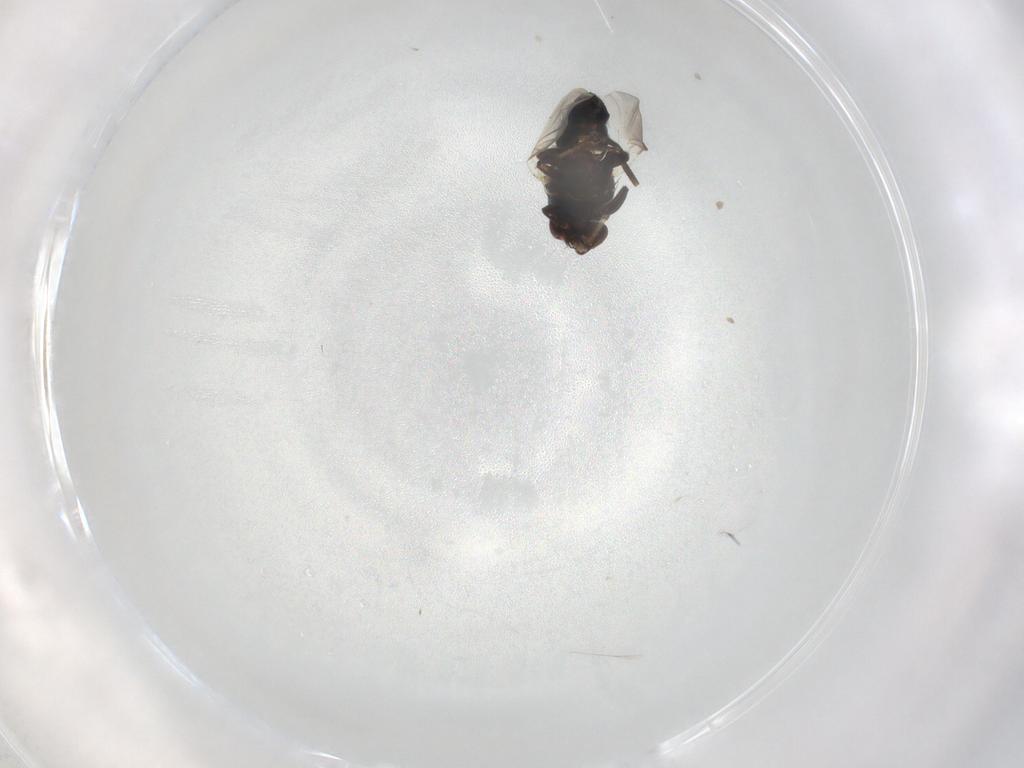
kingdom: Animalia
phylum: Arthropoda
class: Insecta
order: Diptera
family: Agromyzidae
